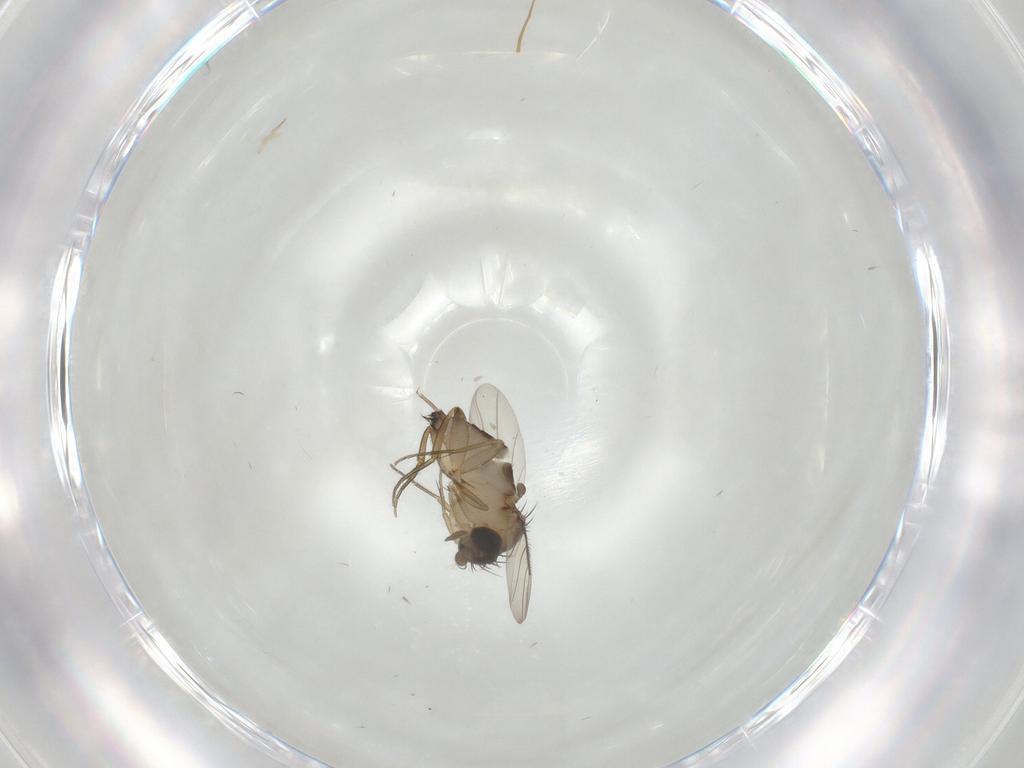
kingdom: Animalia
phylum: Arthropoda
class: Insecta
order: Diptera
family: Phoridae
